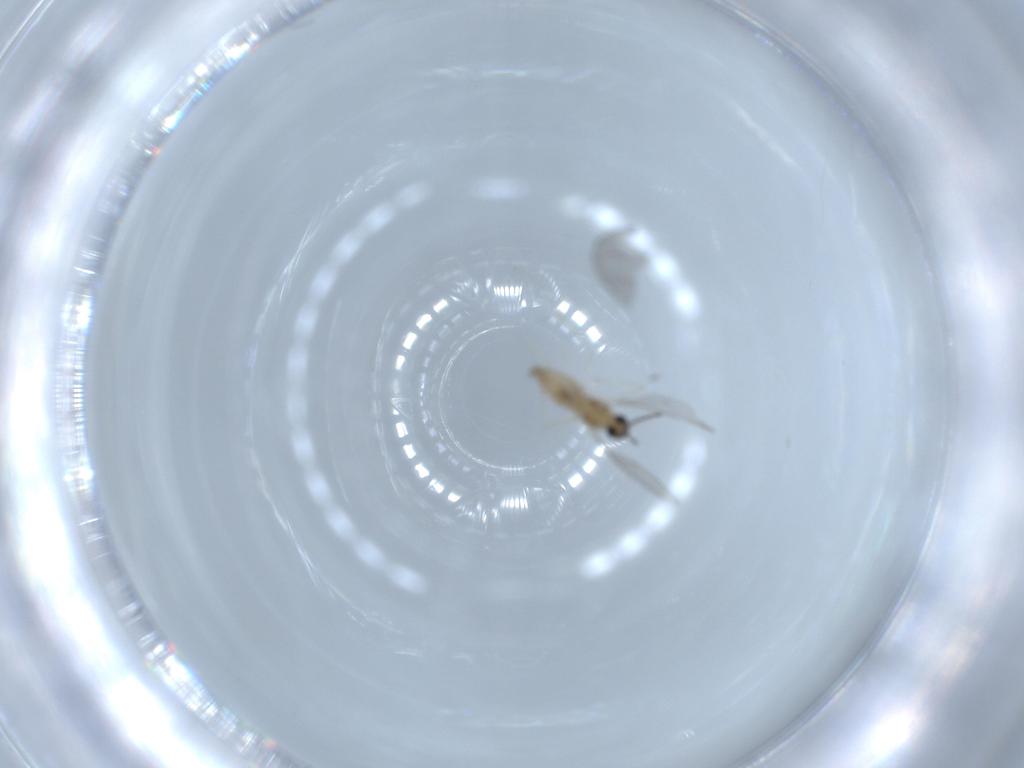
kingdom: Animalia
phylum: Arthropoda
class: Insecta
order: Diptera
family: Cecidomyiidae
